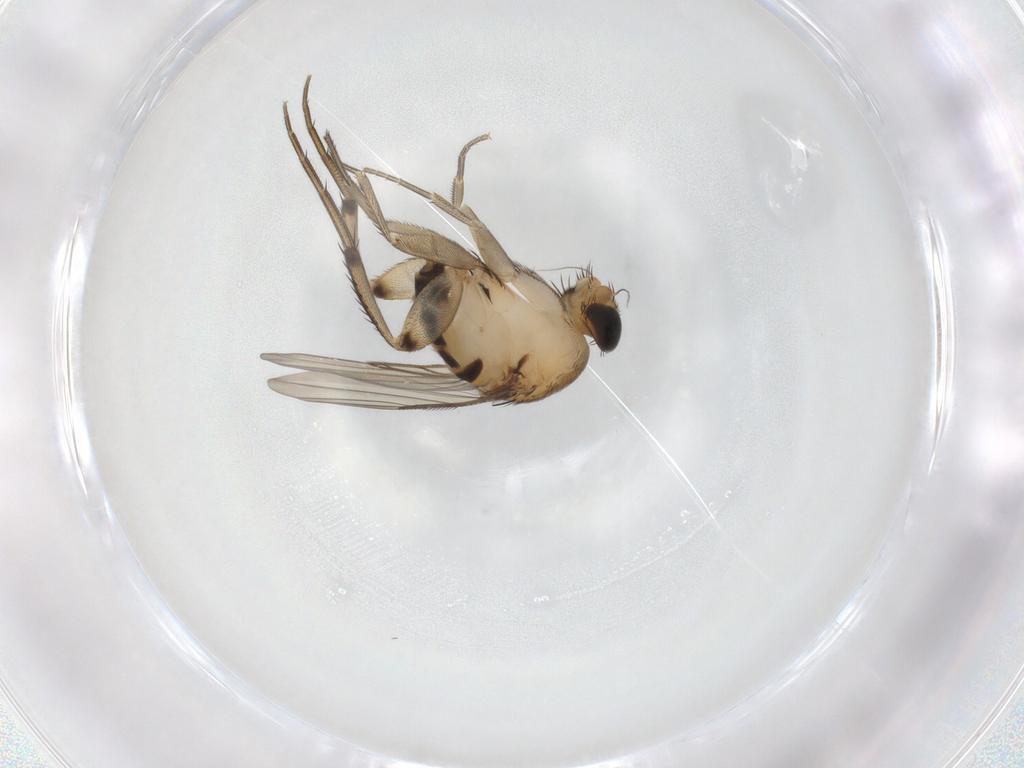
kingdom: Animalia
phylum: Arthropoda
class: Insecta
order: Diptera
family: Phoridae
